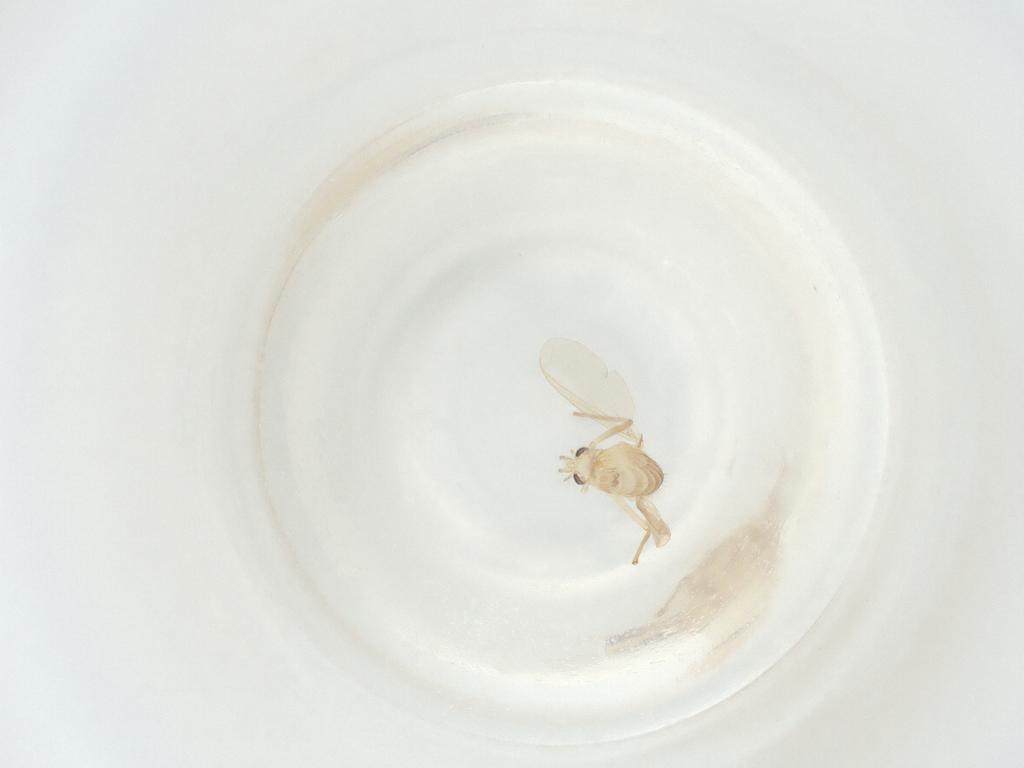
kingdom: Animalia
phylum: Arthropoda
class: Insecta
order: Diptera
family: Chironomidae
